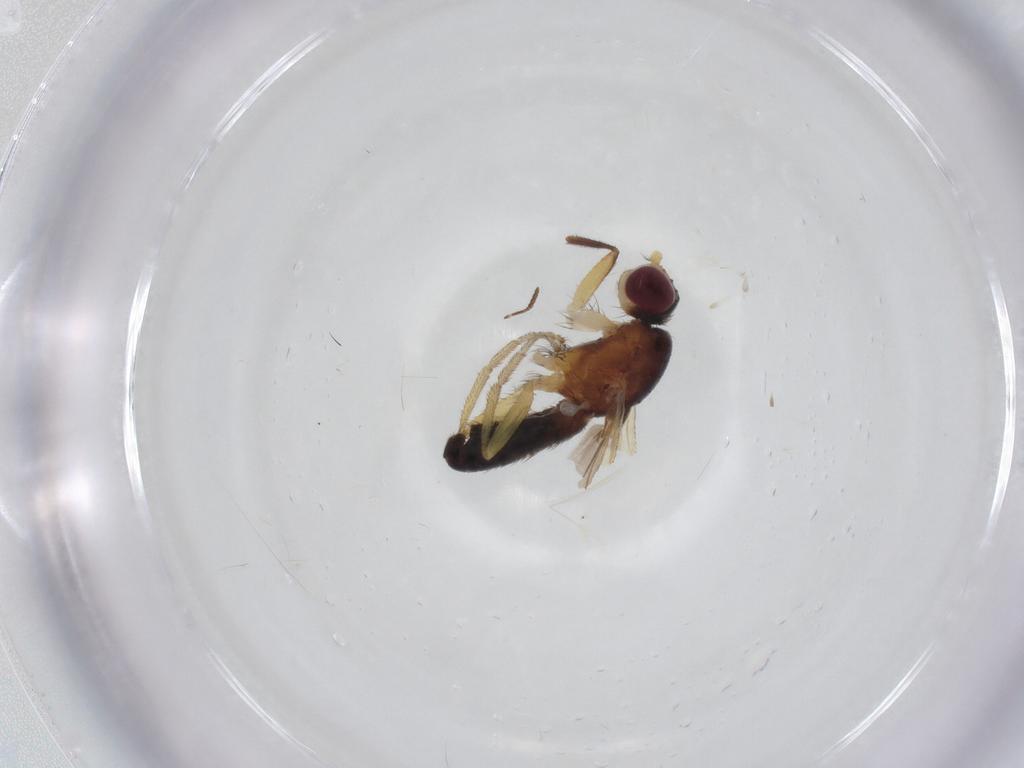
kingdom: Animalia
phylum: Arthropoda
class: Insecta
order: Diptera
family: Heleomyzidae
